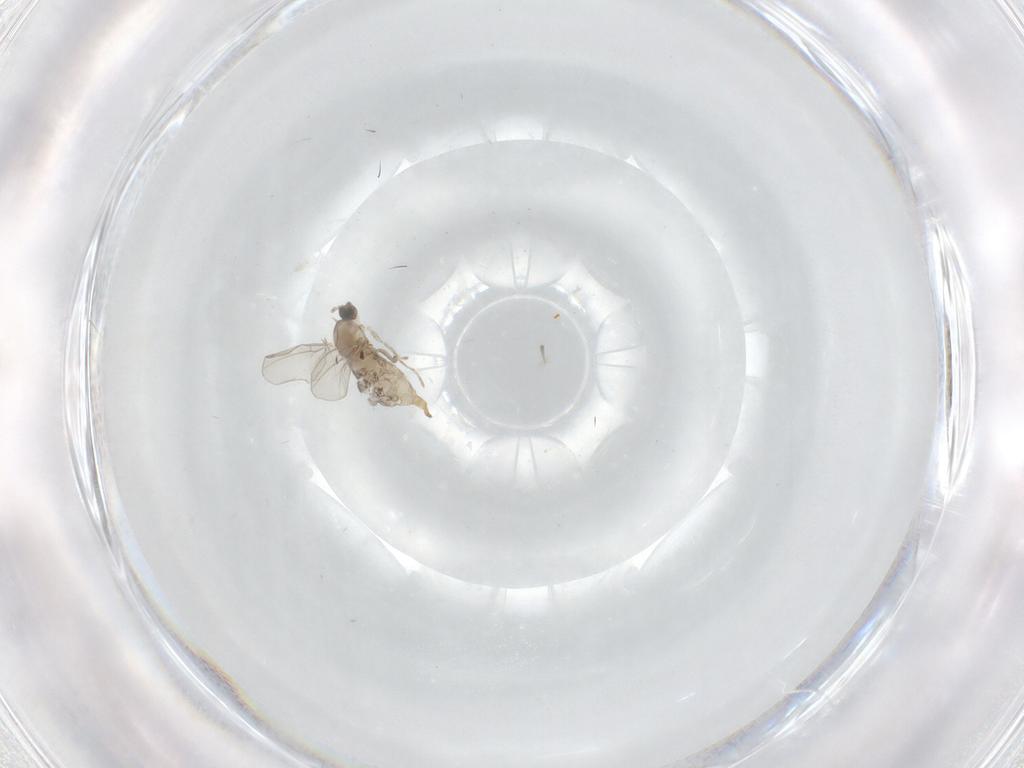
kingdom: Animalia
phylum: Arthropoda
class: Insecta
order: Diptera
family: Cecidomyiidae
